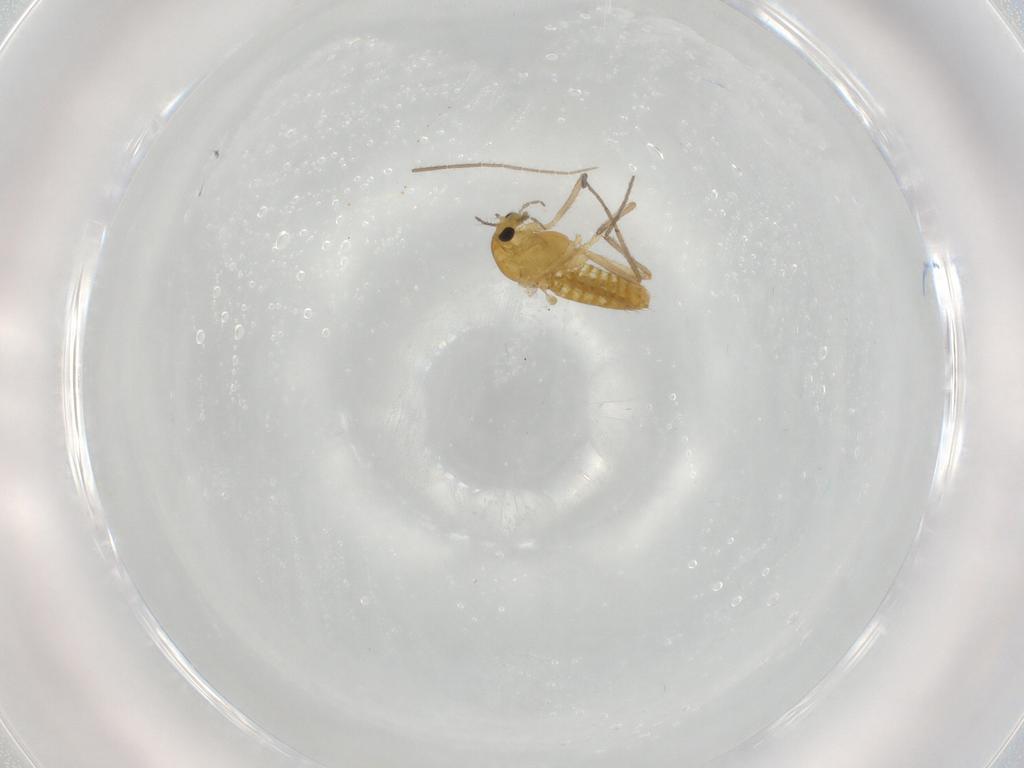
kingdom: Animalia
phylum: Arthropoda
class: Insecta
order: Diptera
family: Chironomidae
